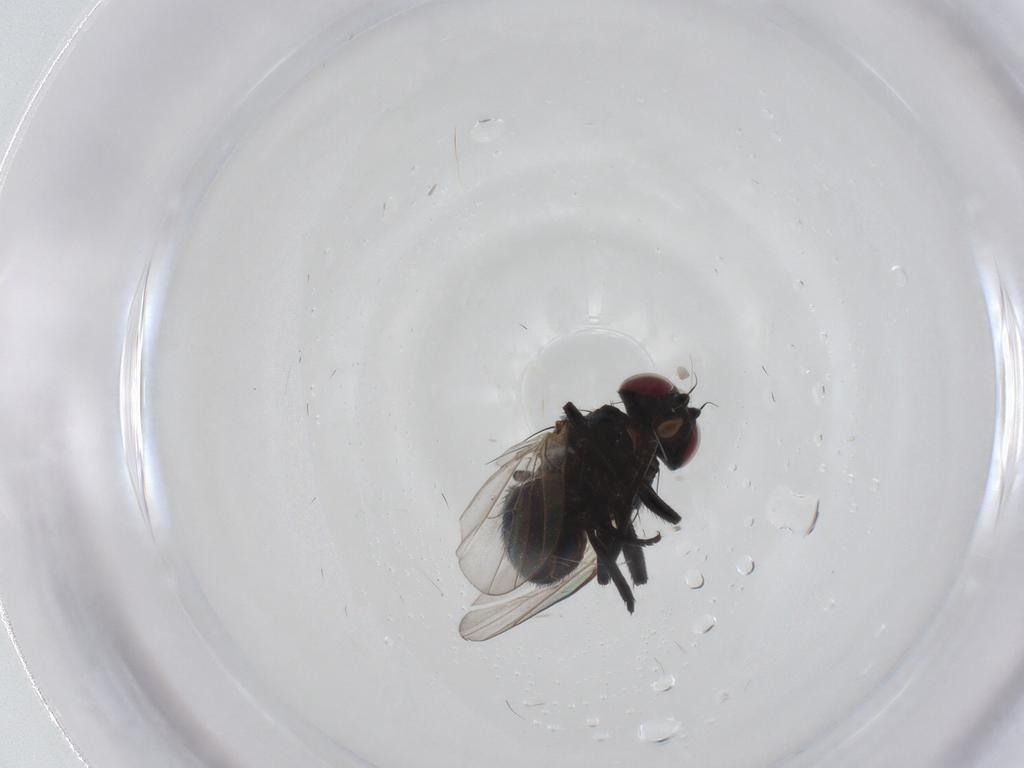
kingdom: Animalia
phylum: Arthropoda
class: Insecta
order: Diptera
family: Agromyzidae
